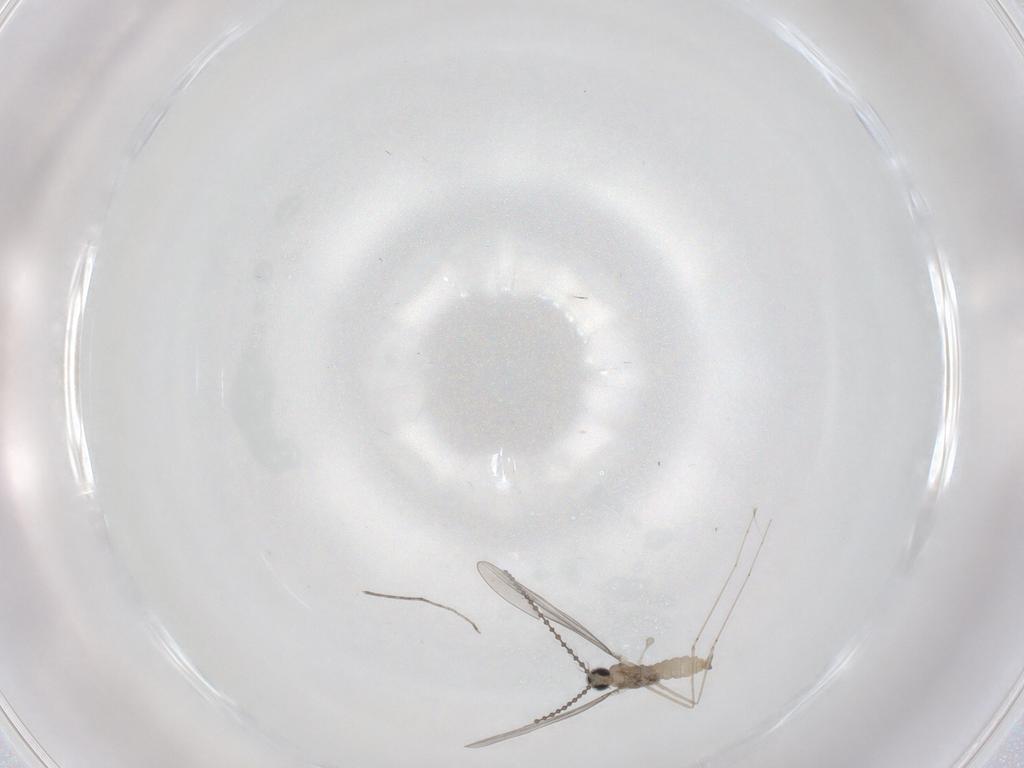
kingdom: Animalia
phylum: Arthropoda
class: Insecta
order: Diptera
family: Cecidomyiidae
